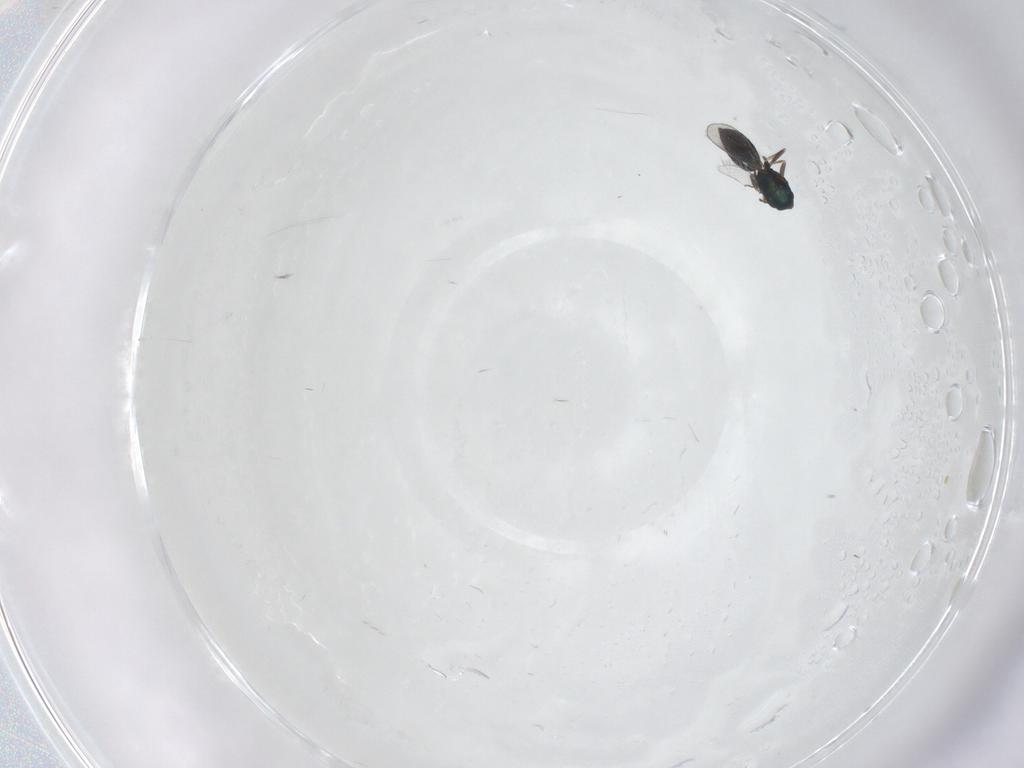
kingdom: Animalia
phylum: Arthropoda
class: Insecta
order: Hymenoptera
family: Eulophidae
